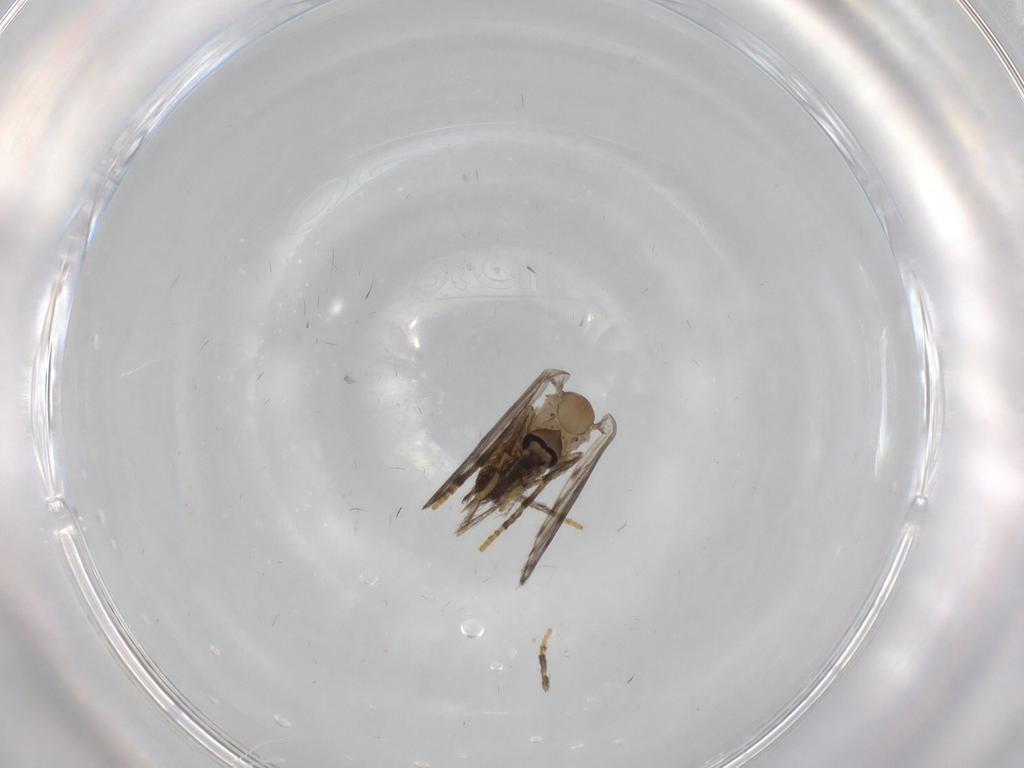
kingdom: Animalia
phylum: Arthropoda
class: Insecta
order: Diptera
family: Psychodidae
